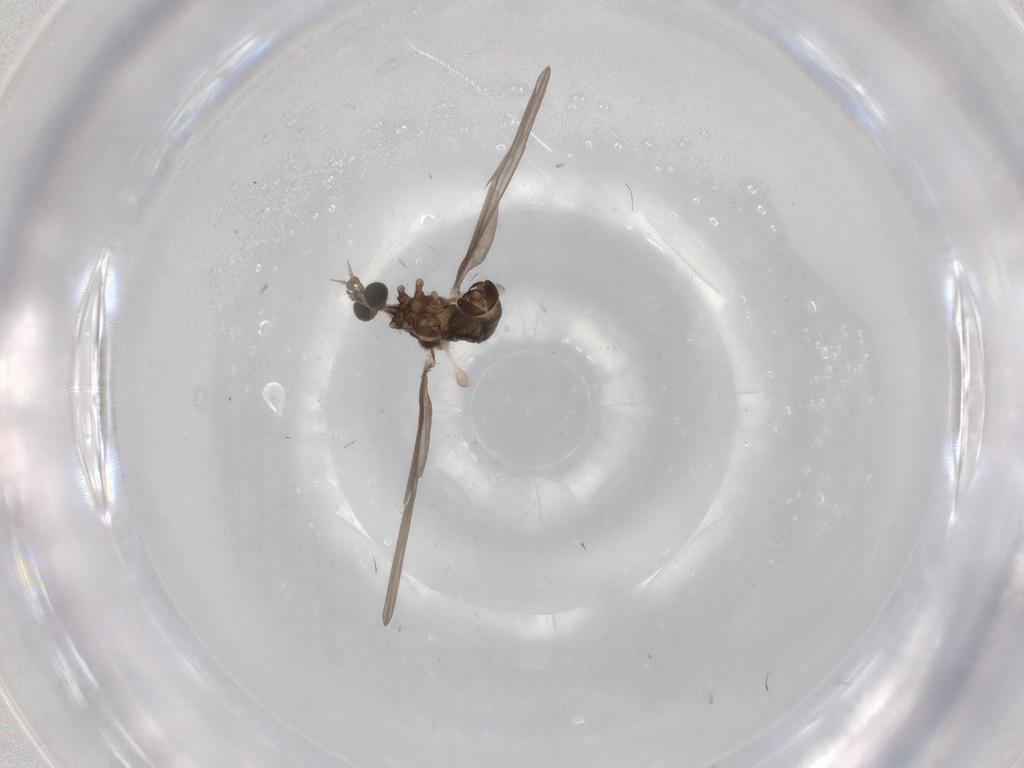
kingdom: Animalia
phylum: Arthropoda
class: Insecta
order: Diptera
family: Limoniidae
